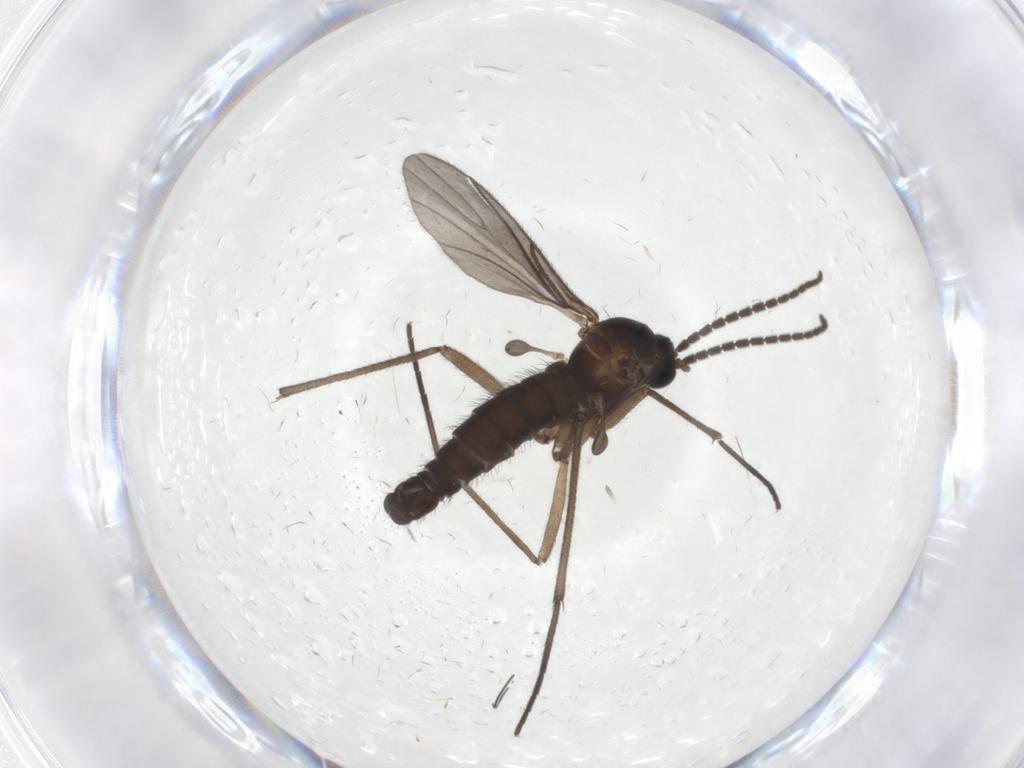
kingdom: Animalia
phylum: Arthropoda
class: Insecta
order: Diptera
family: Sciaridae
